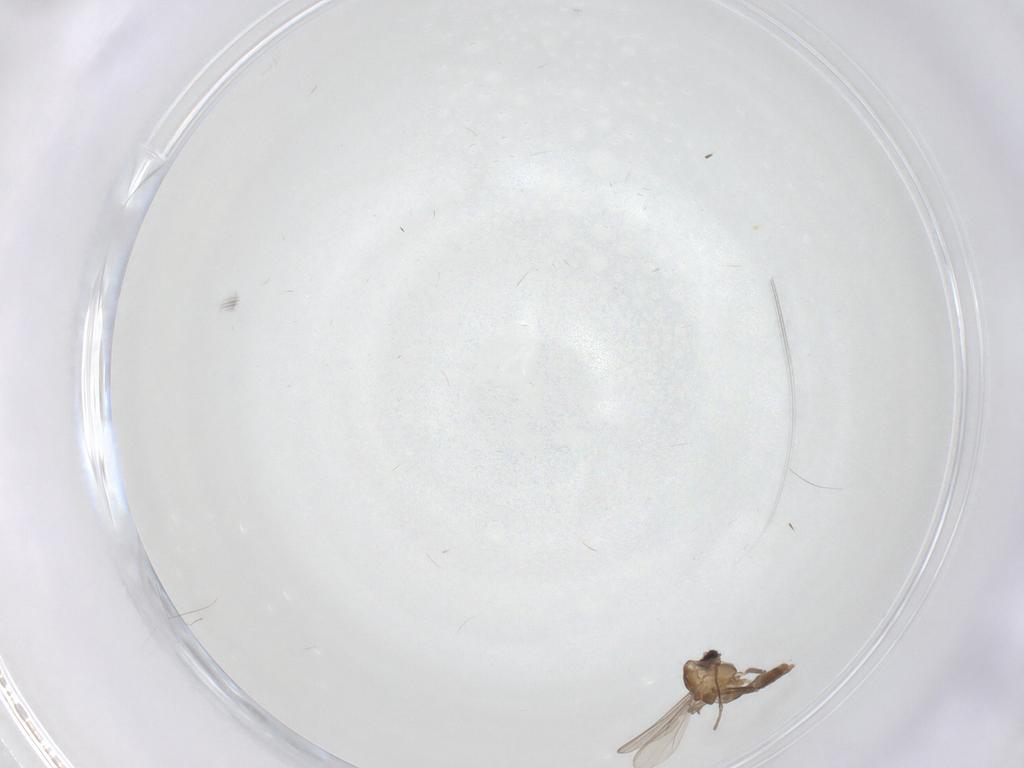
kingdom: Animalia
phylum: Arthropoda
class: Insecta
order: Diptera
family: Chironomidae
